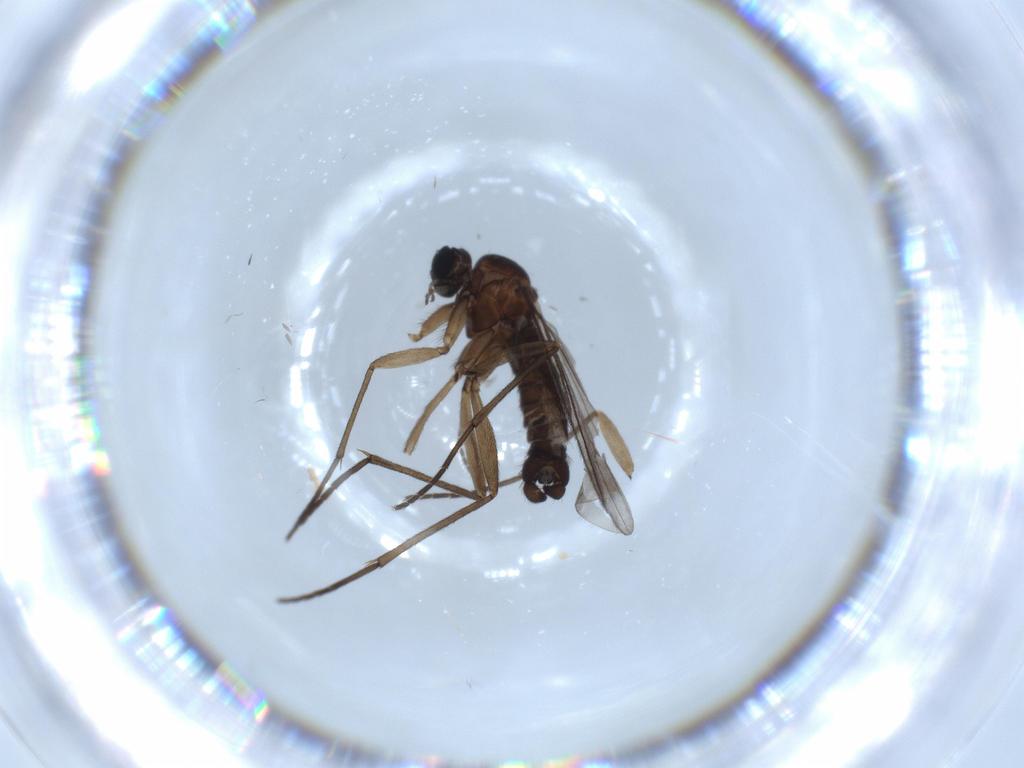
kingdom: Animalia
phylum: Arthropoda
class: Insecta
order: Diptera
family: Sciaridae
